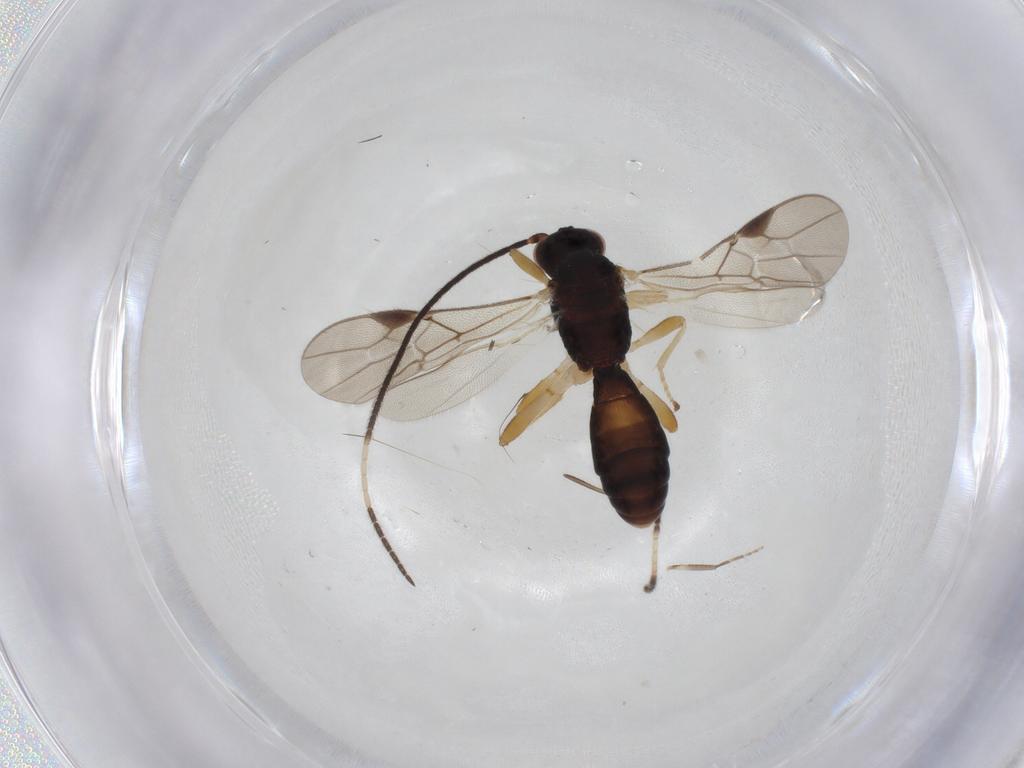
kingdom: Animalia
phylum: Arthropoda
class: Insecta
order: Hymenoptera
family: Braconidae
